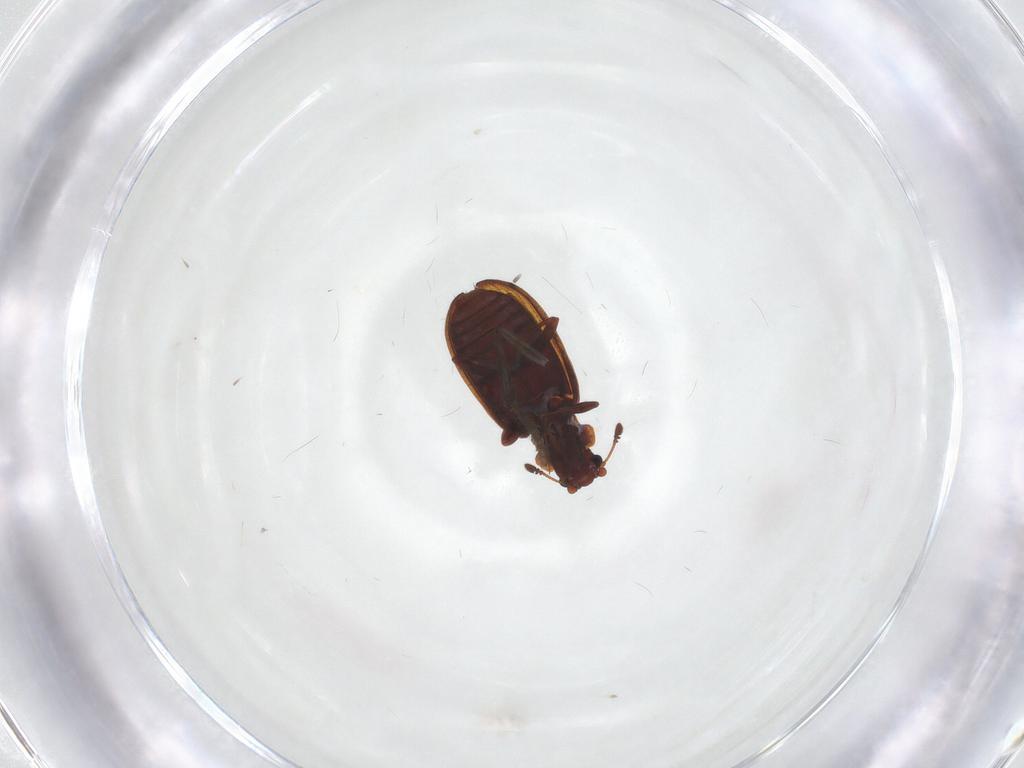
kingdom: Animalia
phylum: Arthropoda
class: Insecta
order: Coleoptera
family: Latridiidae
